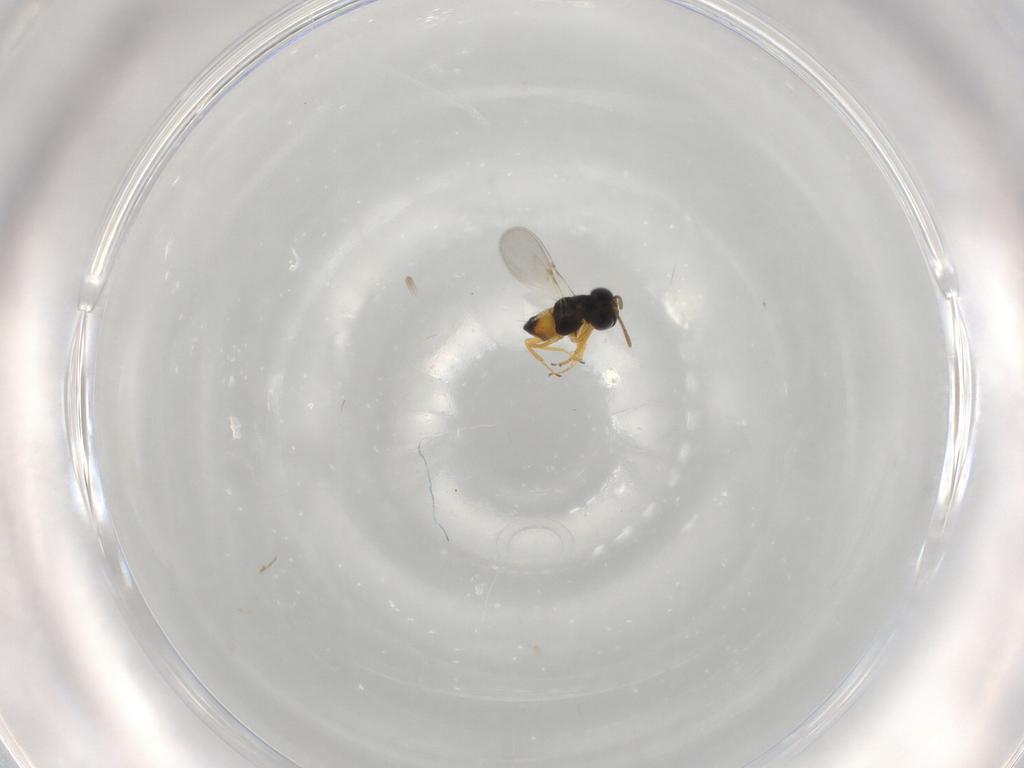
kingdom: Animalia
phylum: Arthropoda
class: Insecta
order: Hymenoptera
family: Encyrtidae
